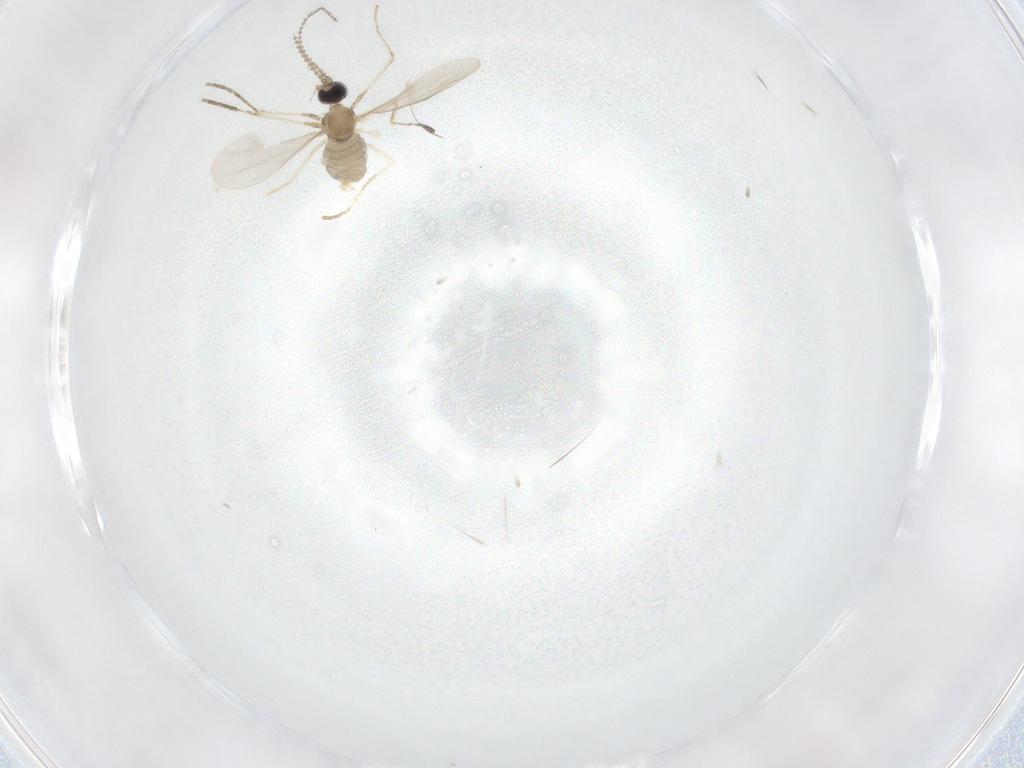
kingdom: Animalia
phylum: Arthropoda
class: Insecta
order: Diptera
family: Cecidomyiidae
